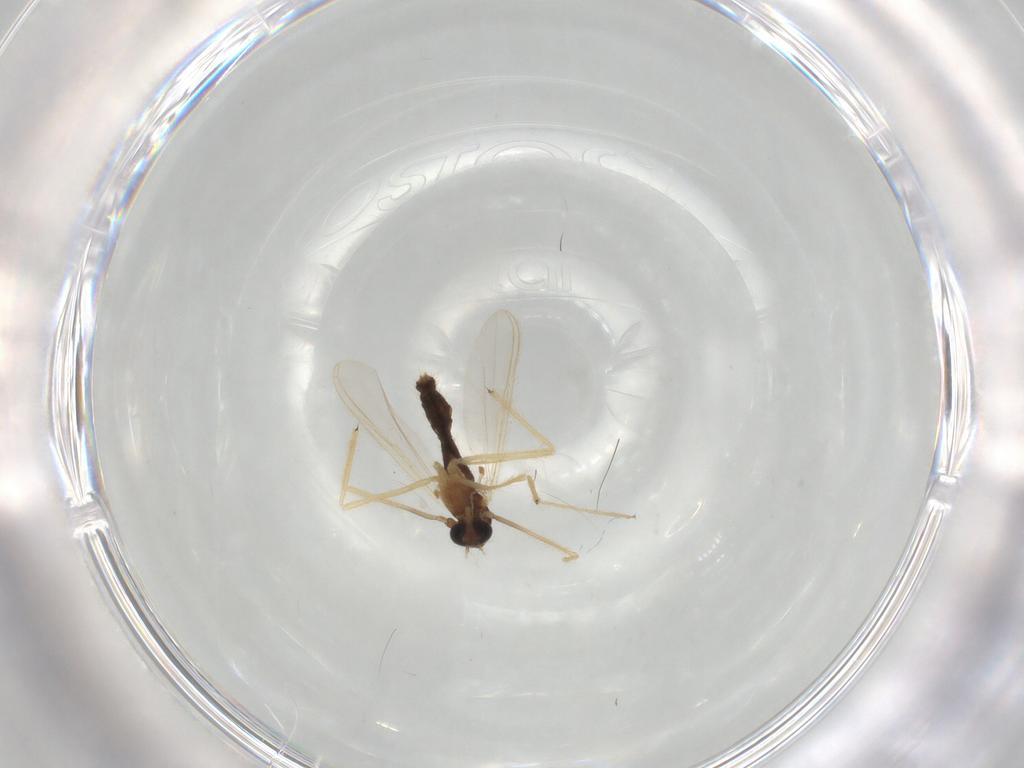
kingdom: Animalia
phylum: Arthropoda
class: Insecta
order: Diptera
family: Chironomidae
